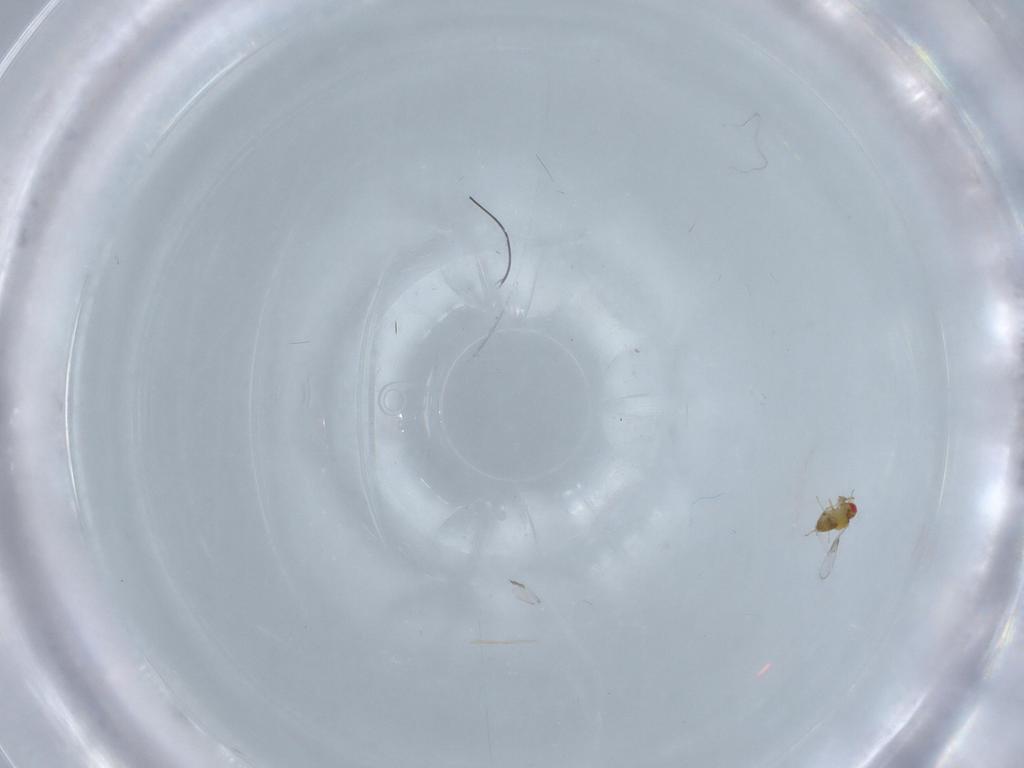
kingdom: Animalia
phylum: Arthropoda
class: Insecta
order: Hymenoptera
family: Trichogrammatidae
